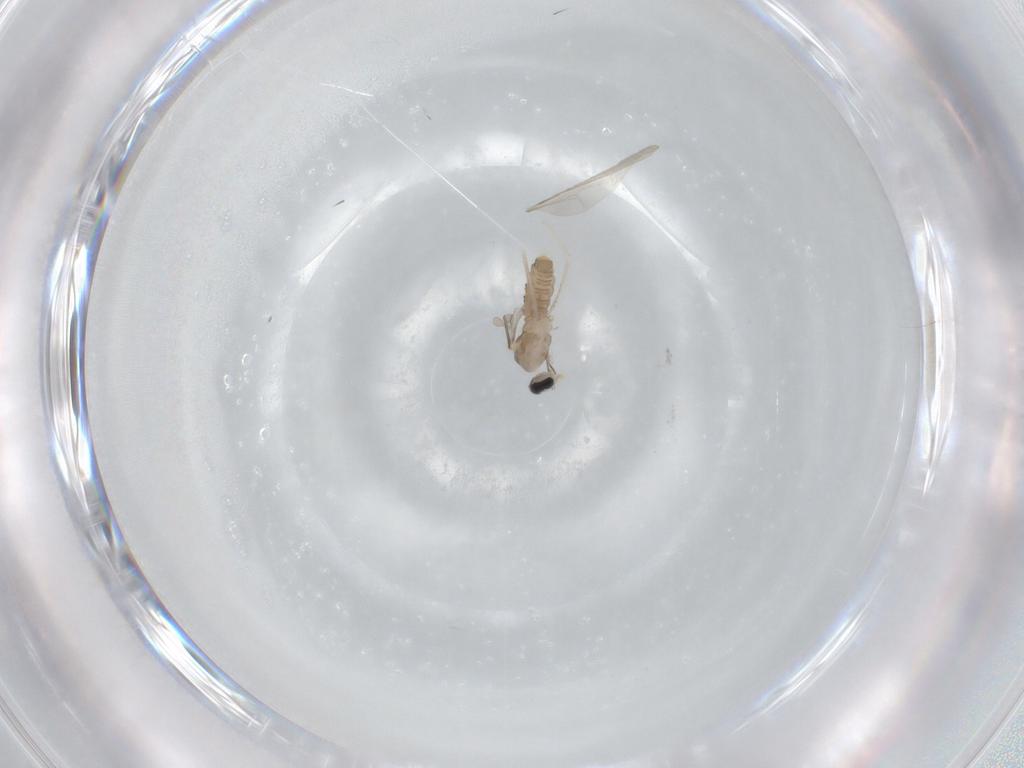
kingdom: Animalia
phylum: Arthropoda
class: Insecta
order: Diptera
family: Cecidomyiidae
